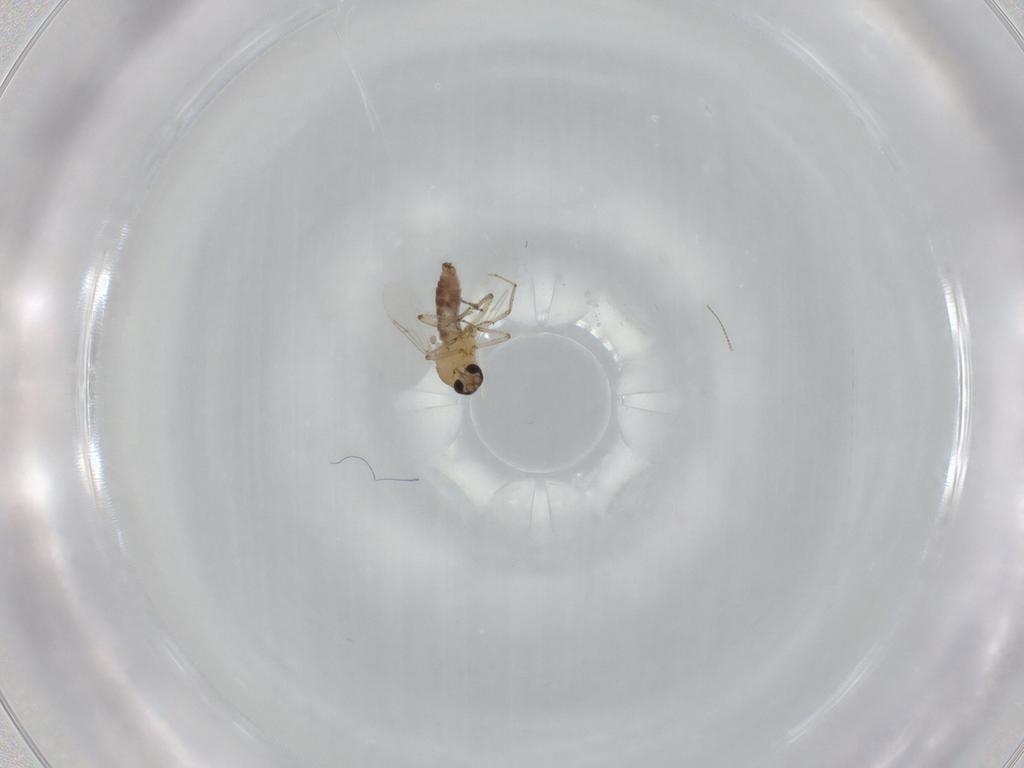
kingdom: Animalia
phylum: Arthropoda
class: Insecta
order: Diptera
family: Ceratopogonidae
